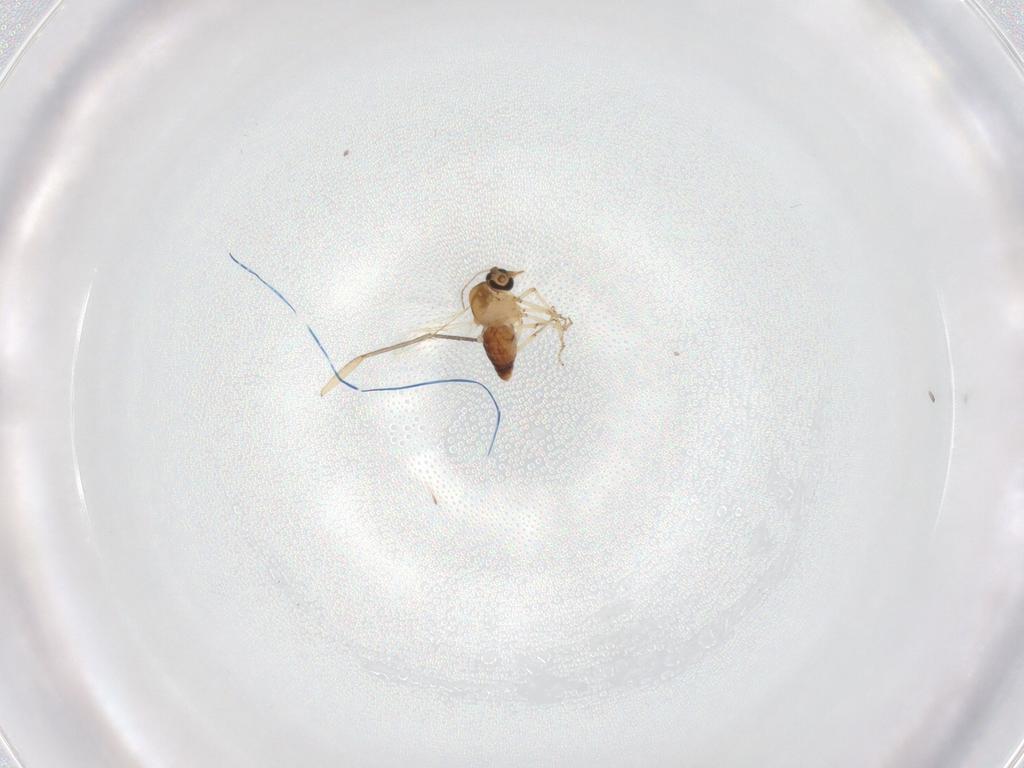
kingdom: Animalia
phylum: Arthropoda
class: Insecta
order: Diptera
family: Ceratopogonidae
